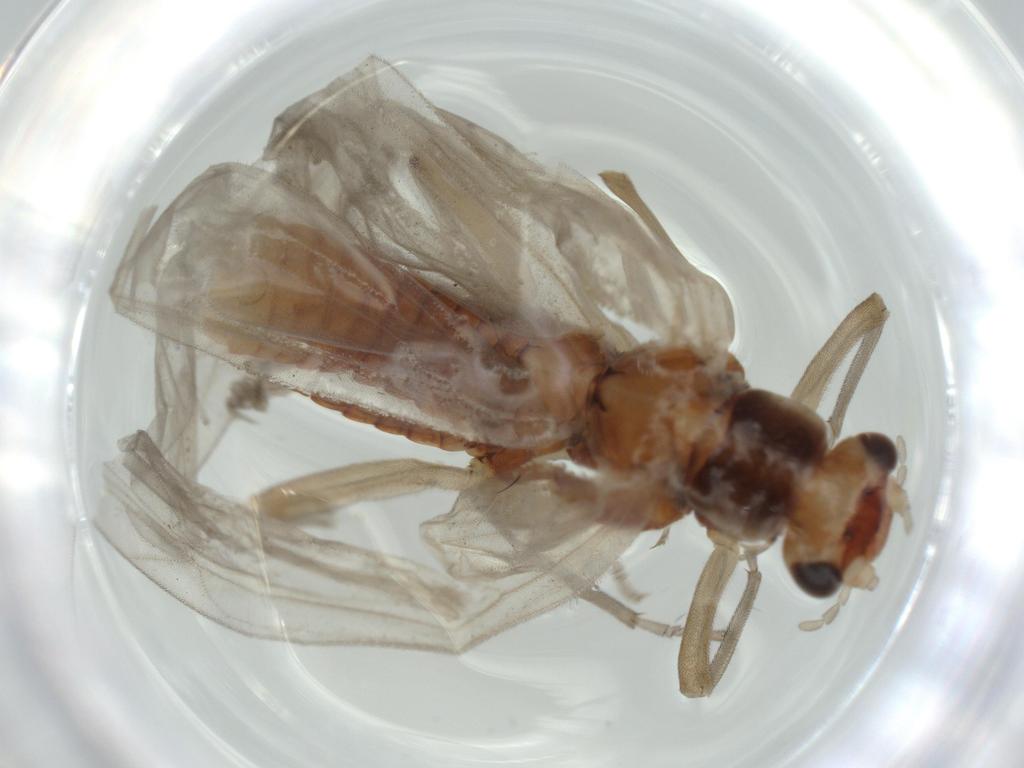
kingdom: Animalia
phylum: Arthropoda
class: Insecta
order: Plecoptera
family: Nemouridae
